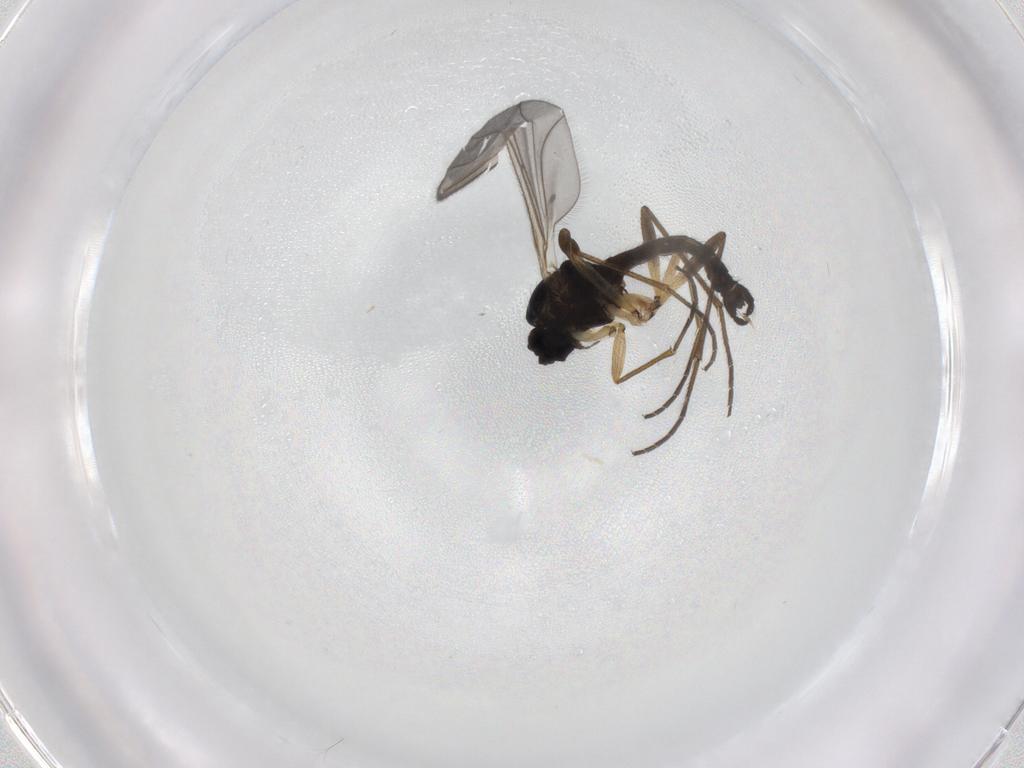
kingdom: Animalia
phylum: Arthropoda
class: Insecta
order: Diptera
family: Sciaridae
